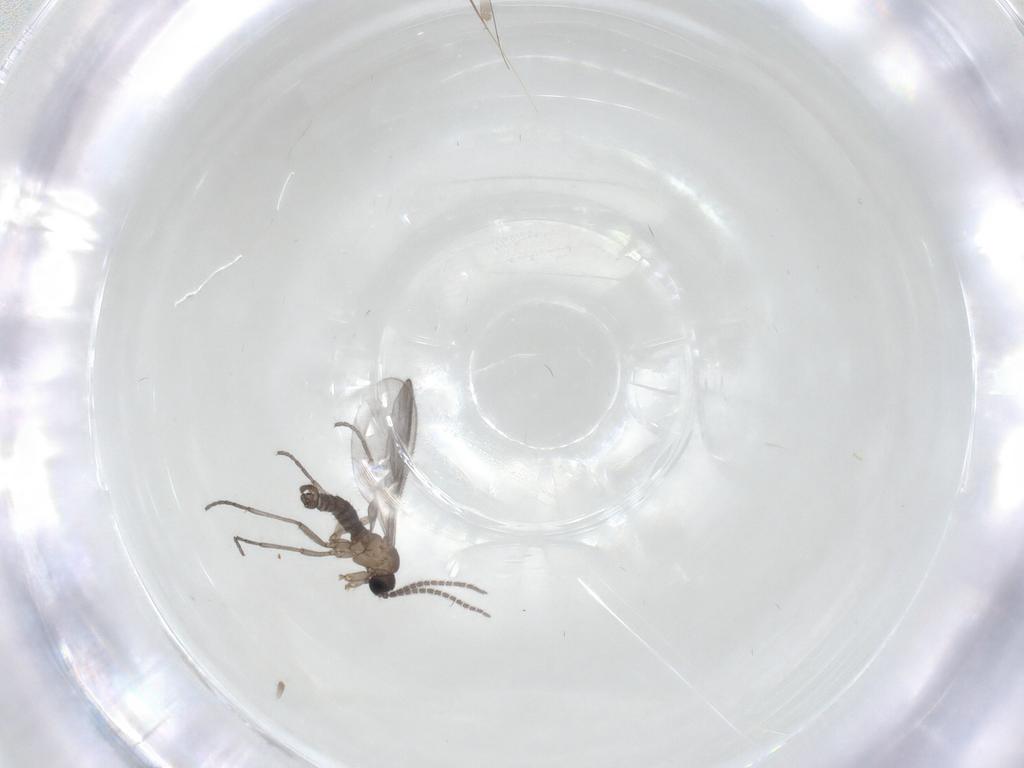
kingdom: Animalia
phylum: Arthropoda
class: Insecta
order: Diptera
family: Sciaridae
